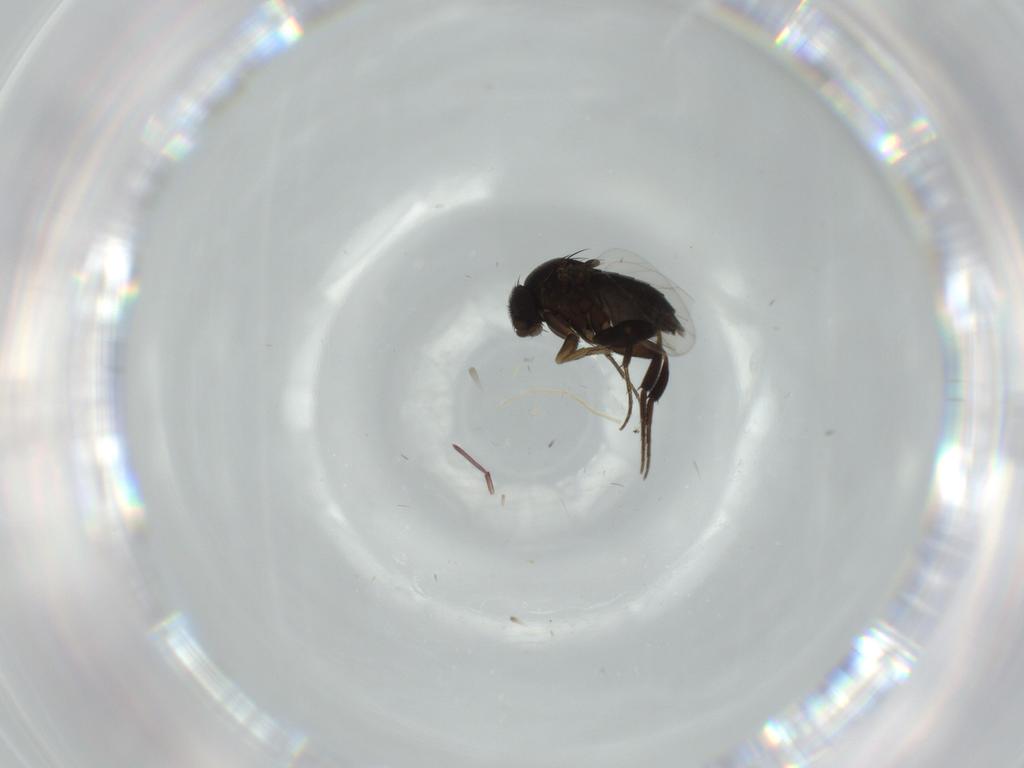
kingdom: Animalia
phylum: Arthropoda
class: Insecta
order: Diptera
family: Phoridae
